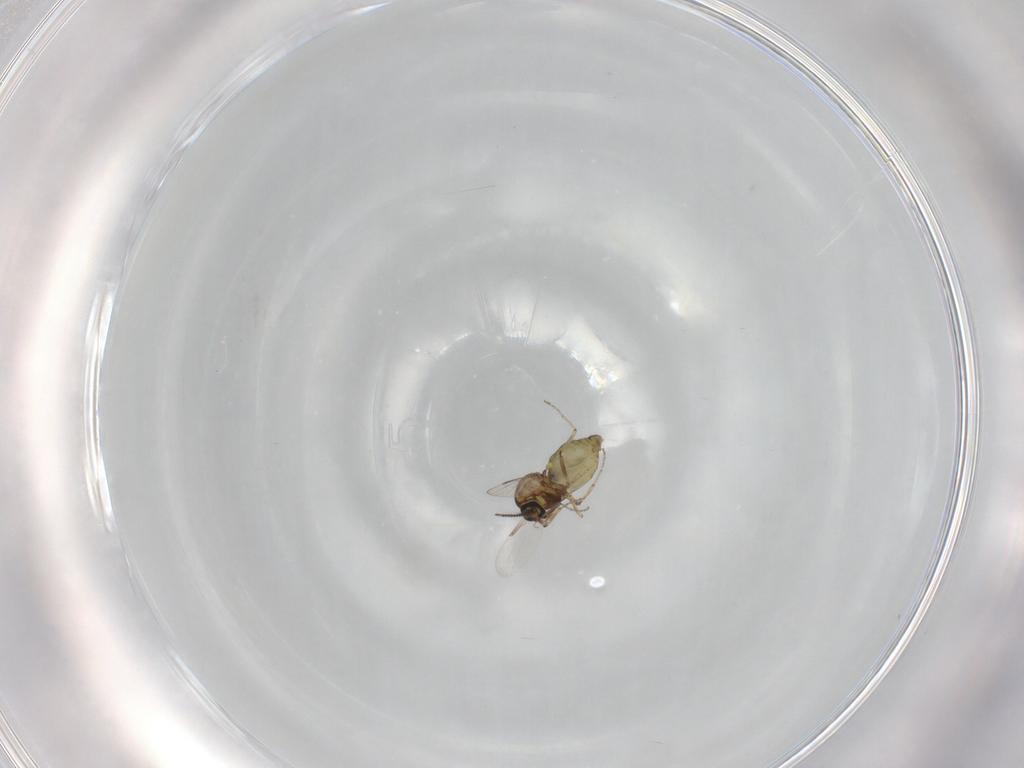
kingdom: Animalia
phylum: Arthropoda
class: Insecta
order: Diptera
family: Ceratopogonidae
